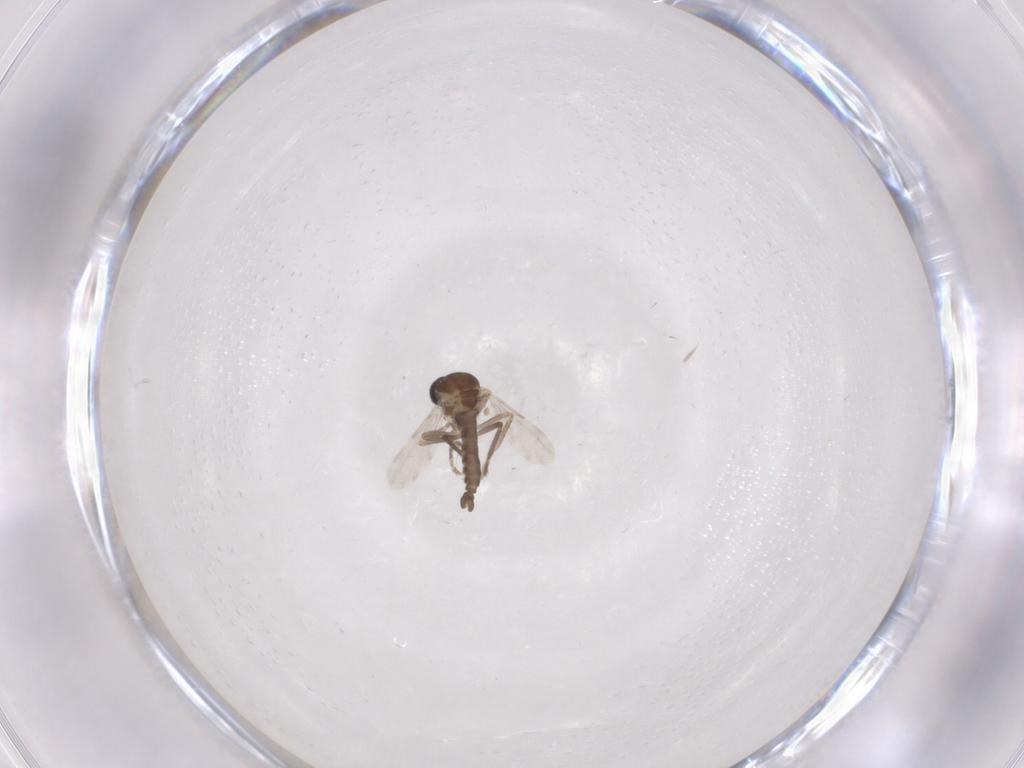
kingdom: Animalia
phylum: Arthropoda
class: Insecta
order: Diptera
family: Ceratopogonidae
